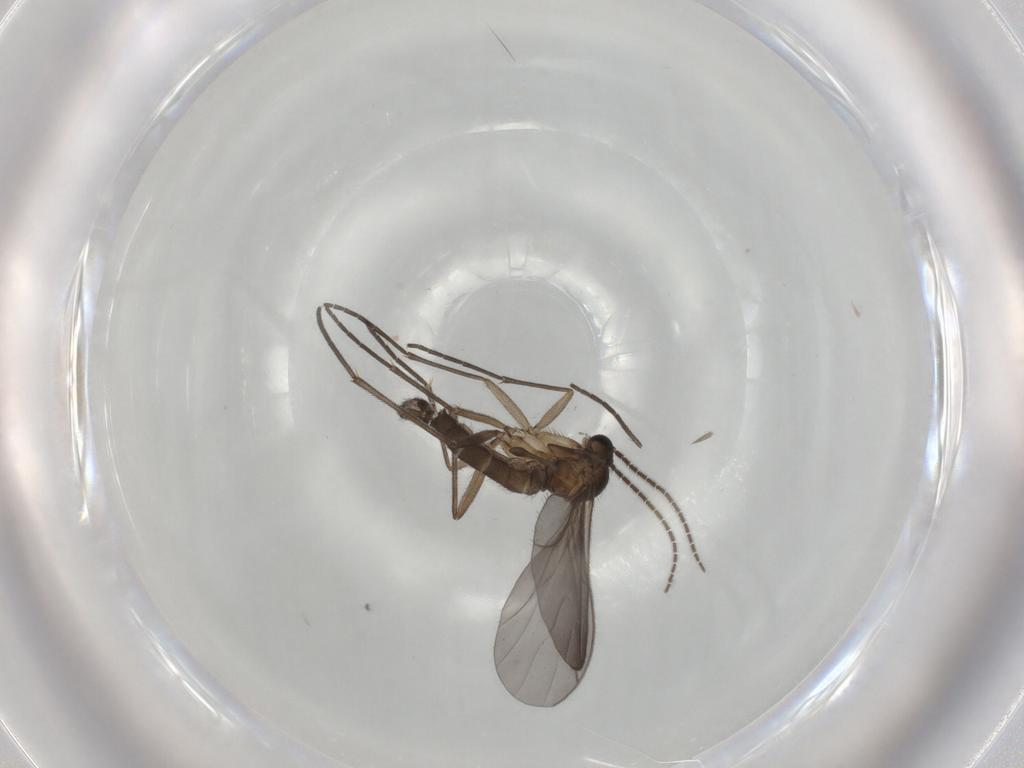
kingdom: Animalia
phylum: Arthropoda
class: Insecta
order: Diptera
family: Sciaridae
